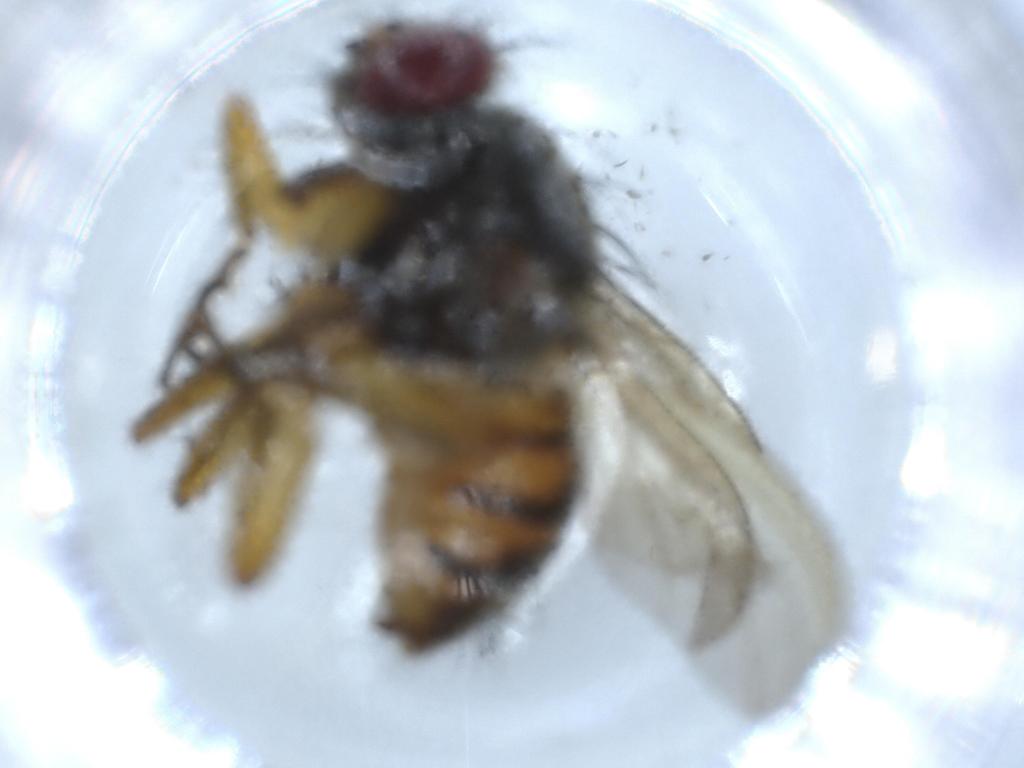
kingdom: Animalia
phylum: Arthropoda
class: Insecta
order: Diptera
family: Muscidae
